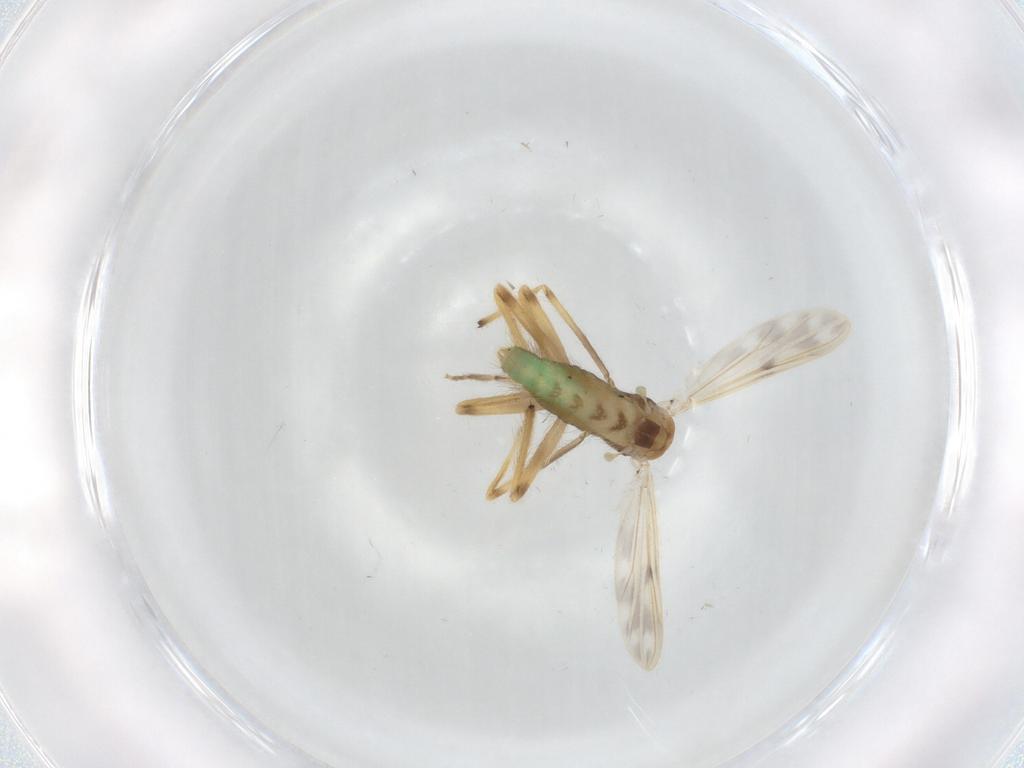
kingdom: Animalia
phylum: Arthropoda
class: Insecta
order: Diptera
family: Chironomidae
